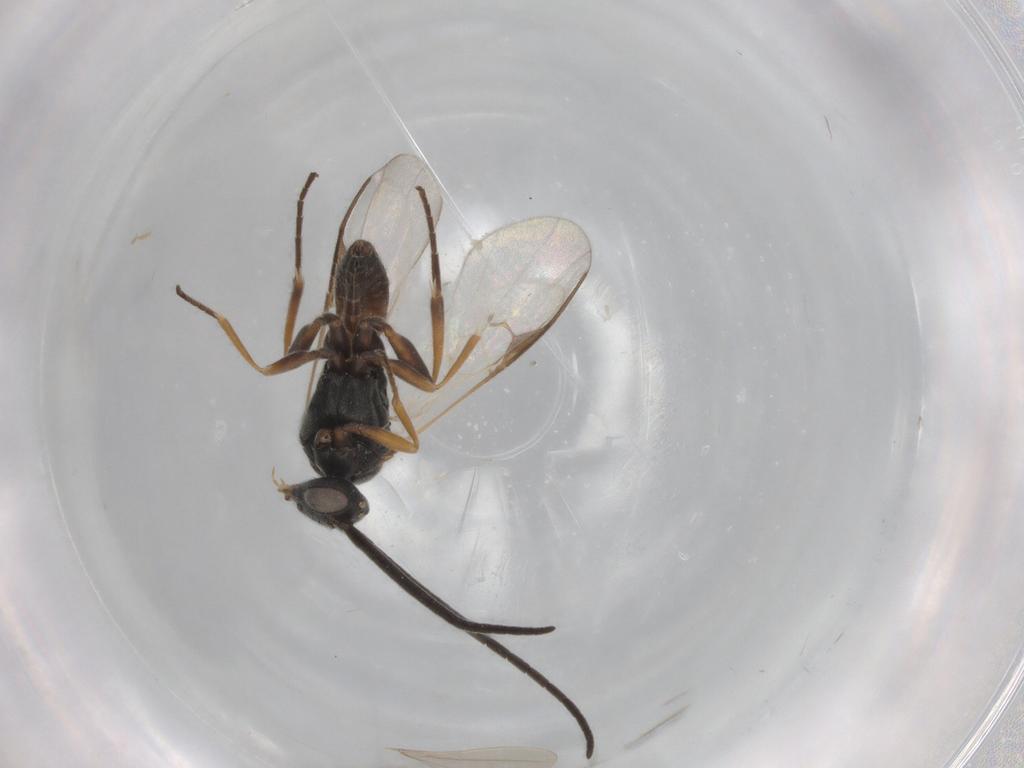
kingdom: Animalia
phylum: Arthropoda
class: Insecta
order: Hymenoptera
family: Braconidae
